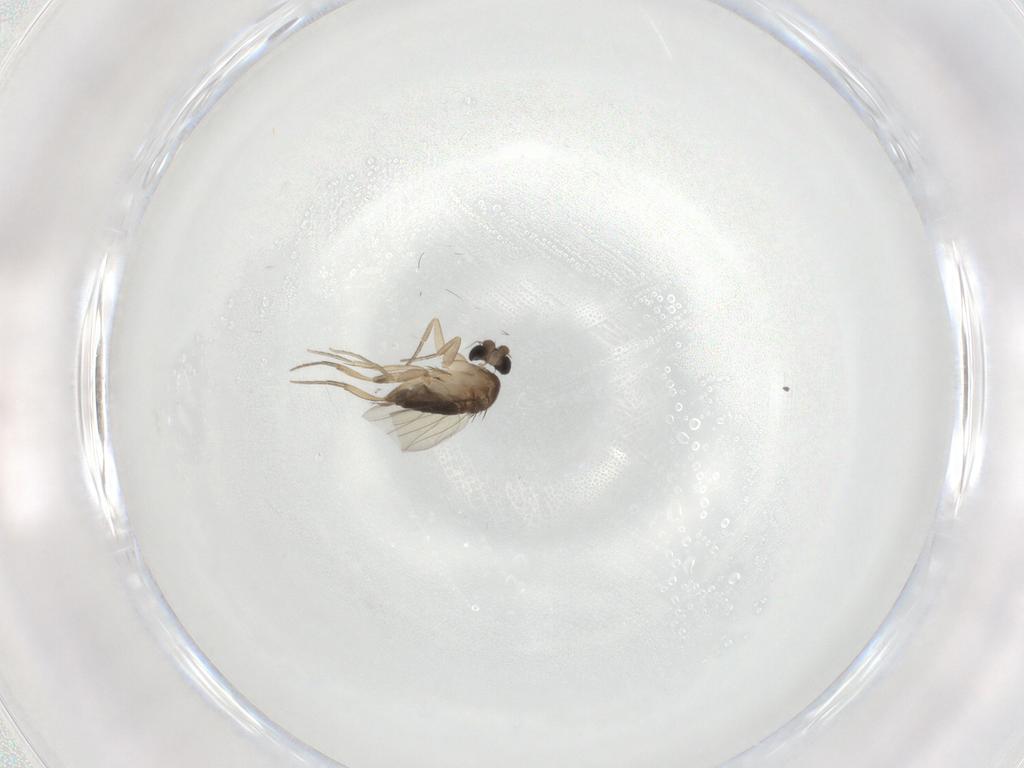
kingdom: Animalia
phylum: Arthropoda
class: Insecta
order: Diptera
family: Phoridae
